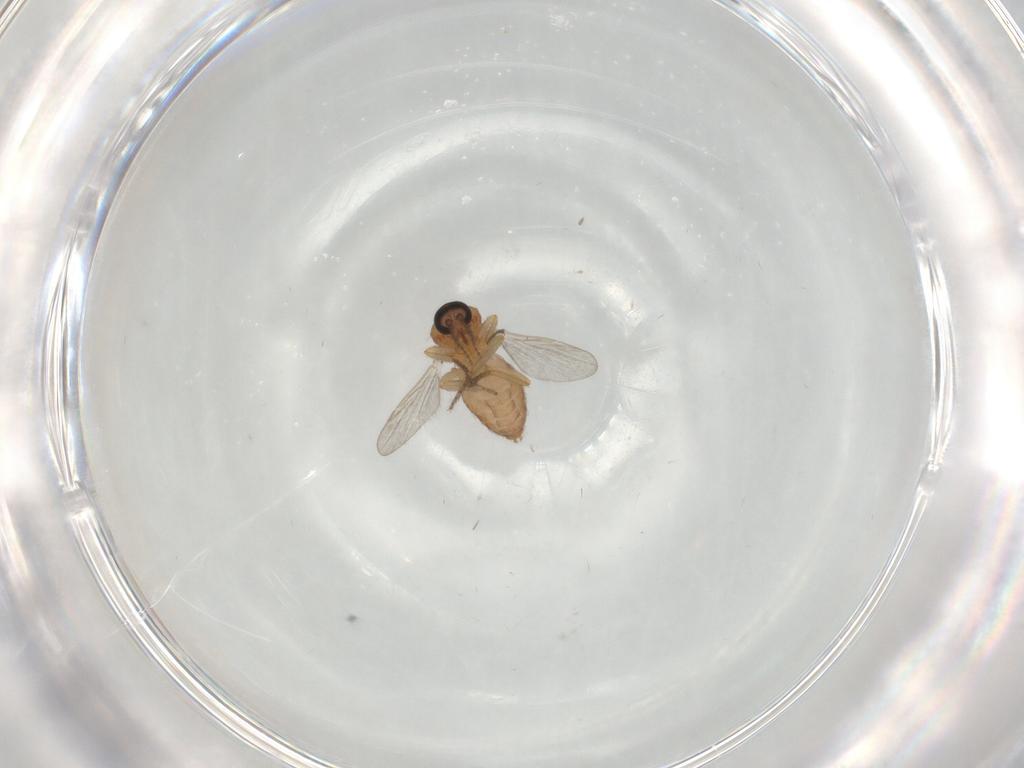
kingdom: Animalia
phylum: Arthropoda
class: Insecta
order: Diptera
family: Ceratopogonidae
